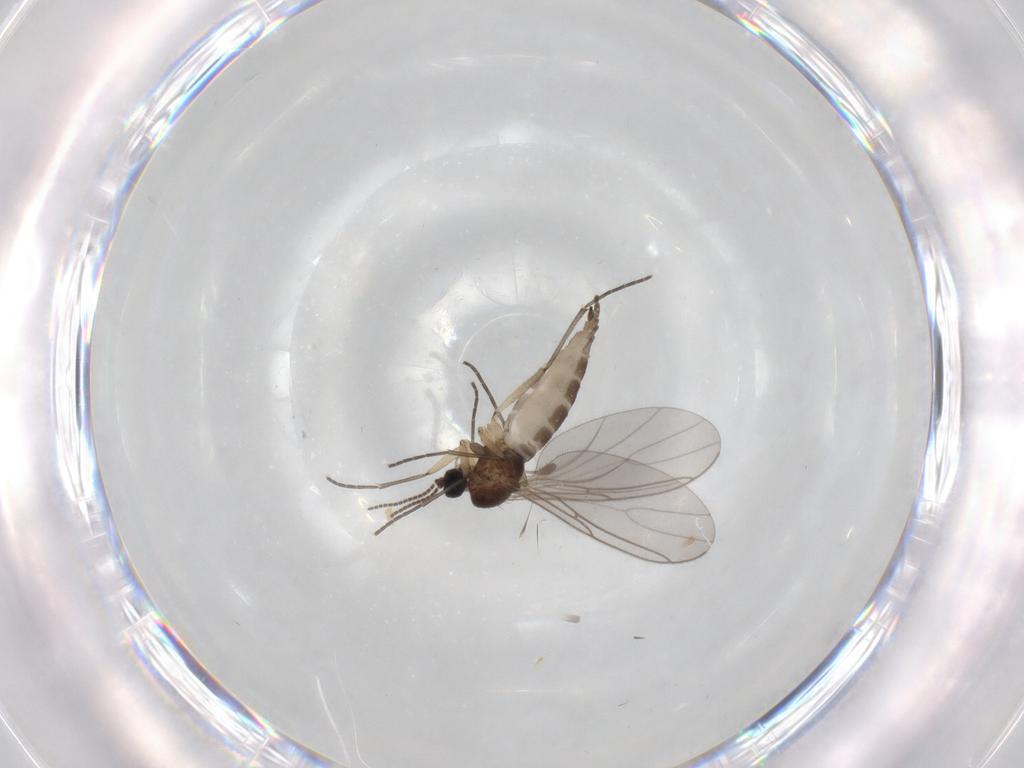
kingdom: Animalia
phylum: Arthropoda
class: Insecta
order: Diptera
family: Sciaridae
